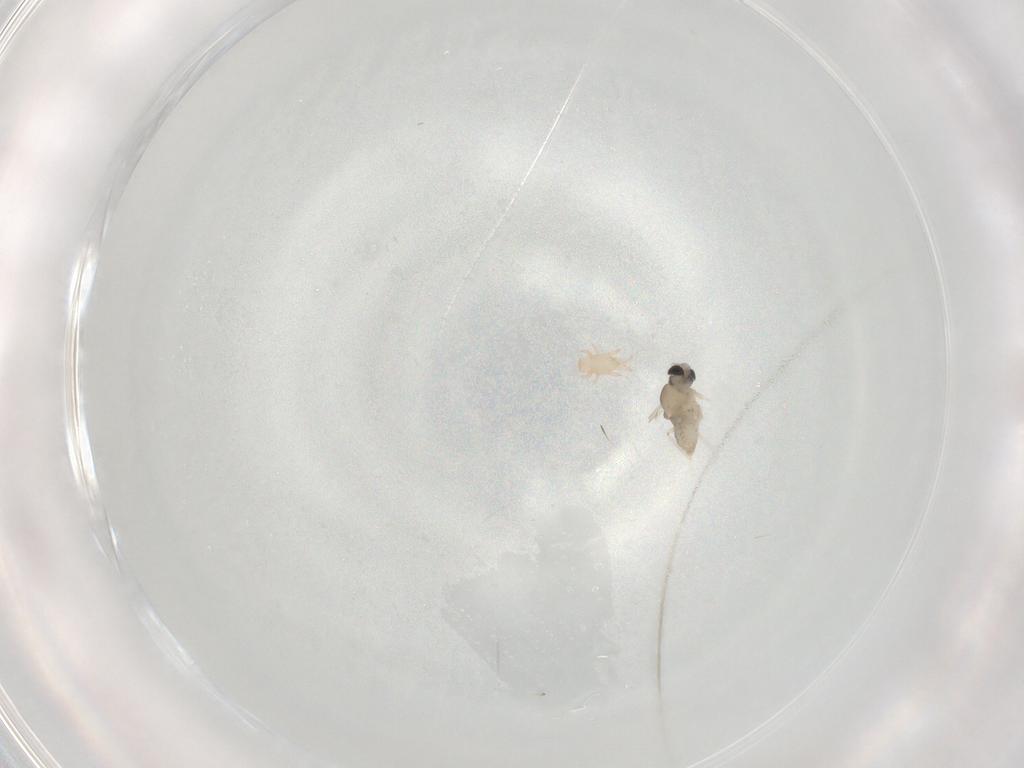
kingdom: Animalia
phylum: Arthropoda
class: Insecta
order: Diptera
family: Cecidomyiidae
